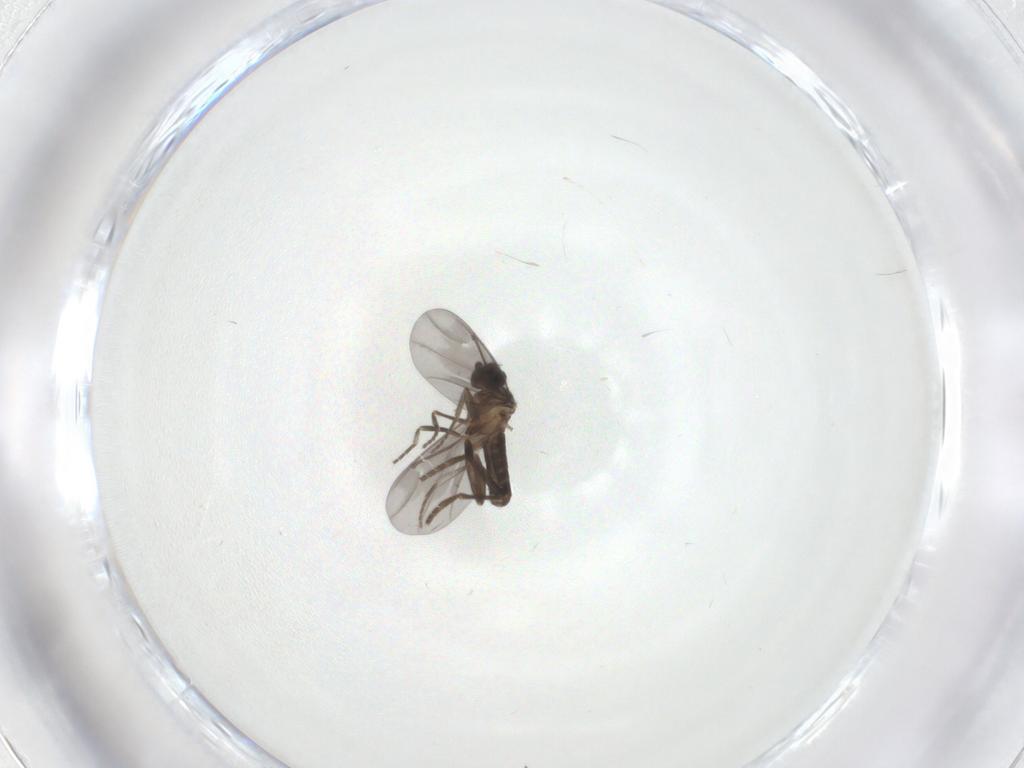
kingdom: Animalia
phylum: Arthropoda
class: Insecta
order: Diptera
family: Cecidomyiidae
